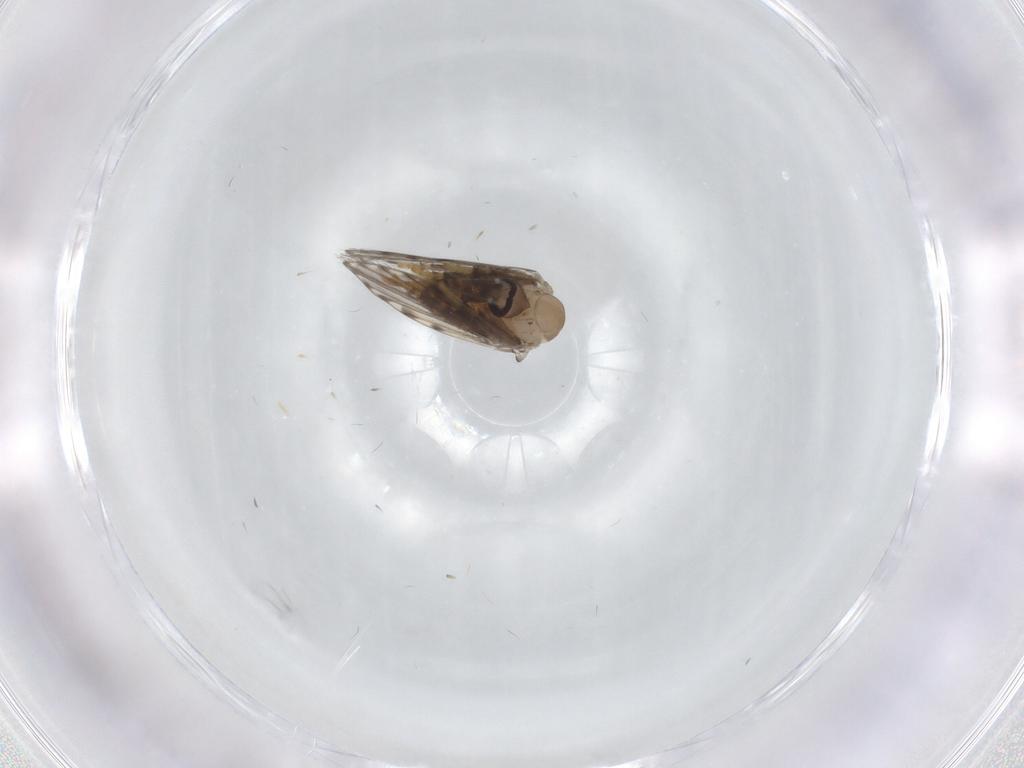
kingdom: Animalia
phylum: Arthropoda
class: Insecta
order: Diptera
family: Psychodidae
